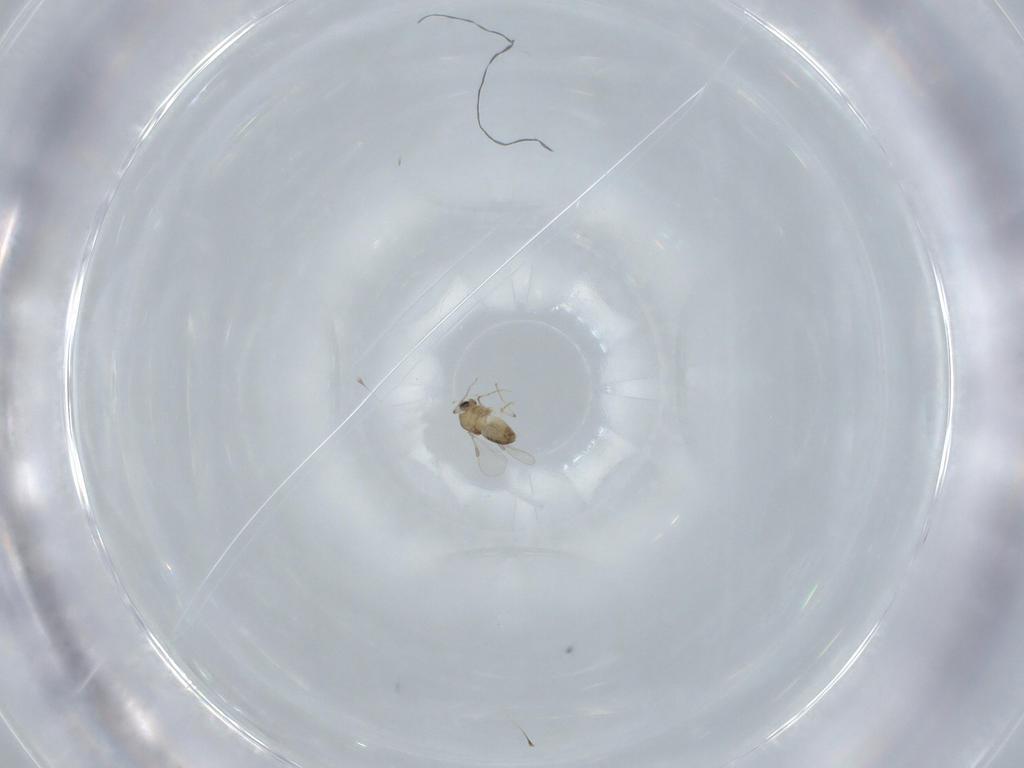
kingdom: Animalia
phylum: Arthropoda
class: Insecta
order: Diptera
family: Chironomidae
